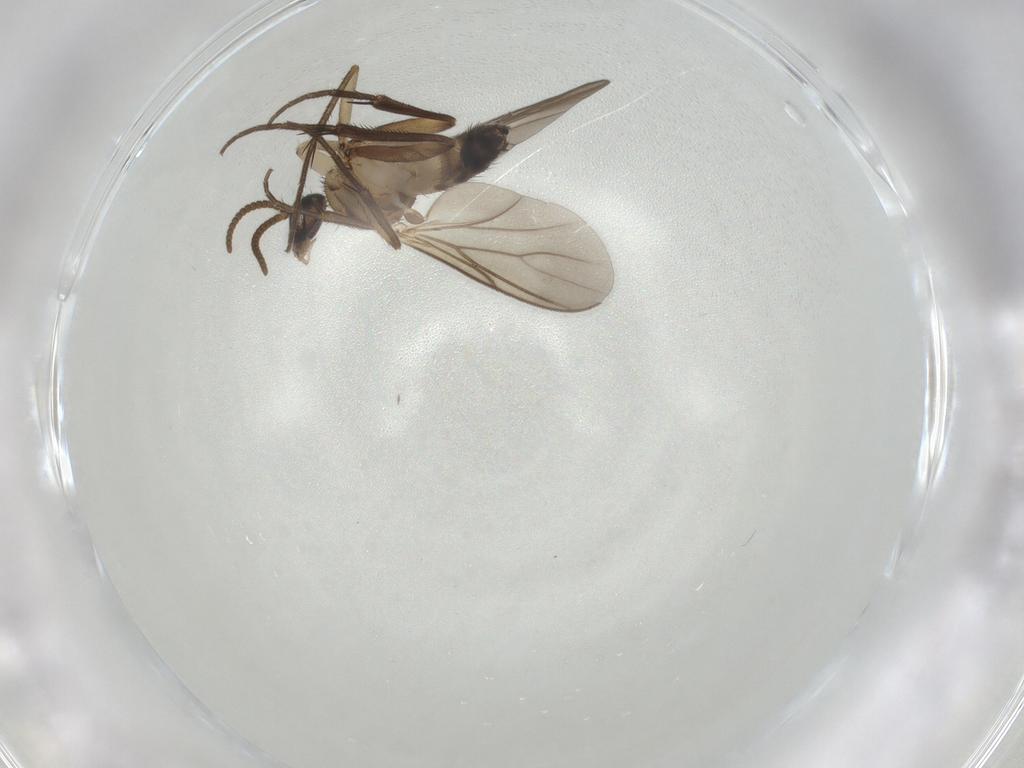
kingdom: Animalia
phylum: Arthropoda
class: Insecta
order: Diptera
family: Mycetophilidae
